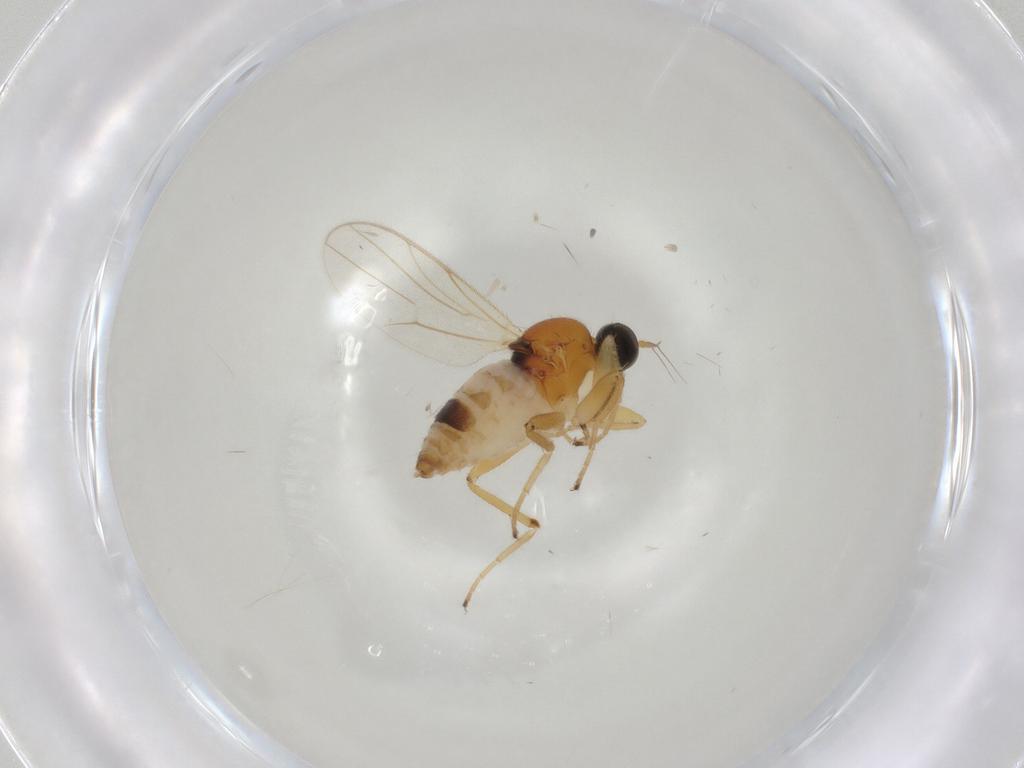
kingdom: Animalia
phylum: Arthropoda
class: Insecta
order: Diptera
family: Hybotidae
